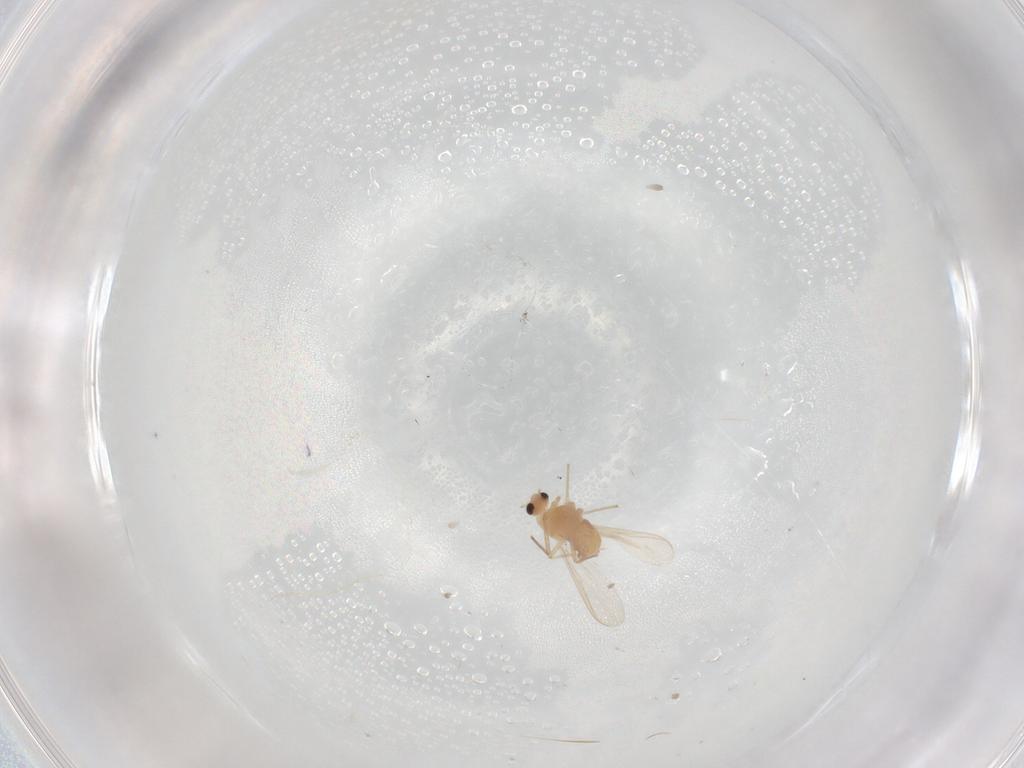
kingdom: Animalia
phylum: Arthropoda
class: Insecta
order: Diptera
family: Chironomidae
